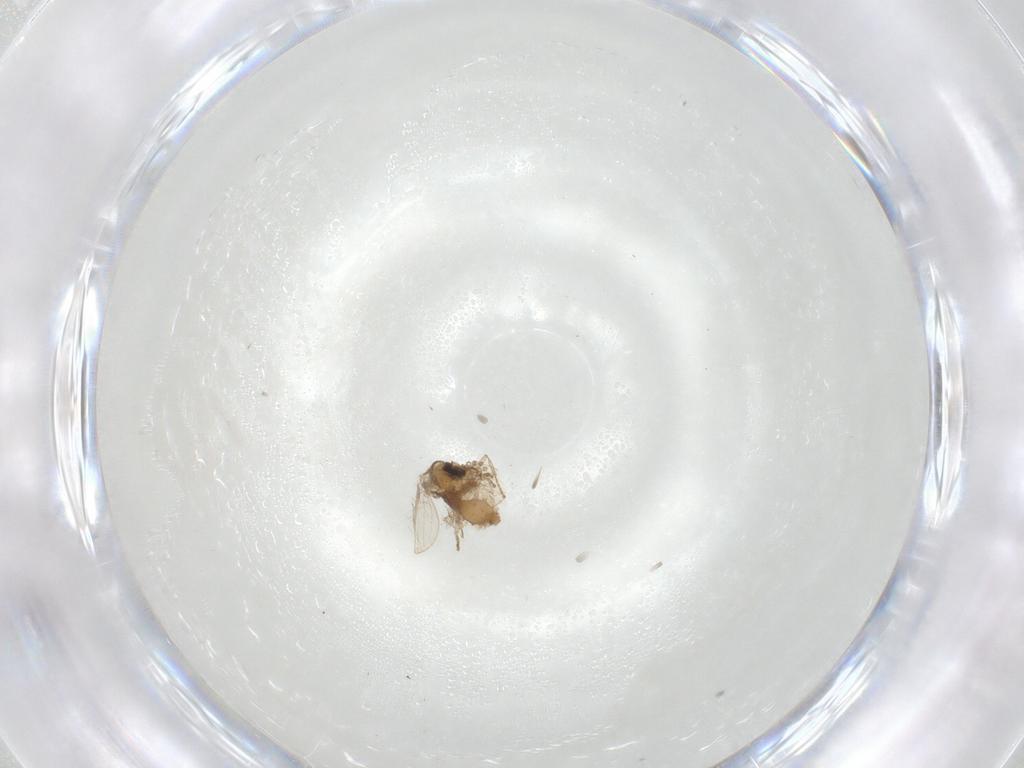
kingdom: Animalia
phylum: Arthropoda
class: Insecta
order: Diptera
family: Psychodidae
